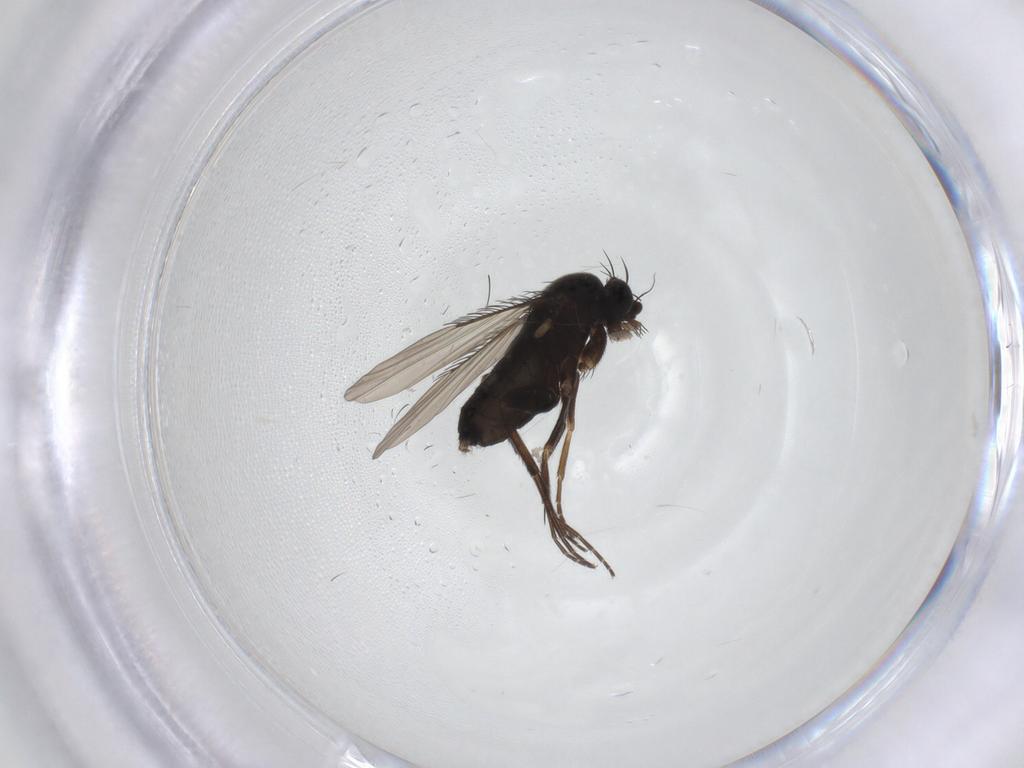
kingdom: Animalia
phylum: Arthropoda
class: Insecta
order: Diptera
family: Phoridae
